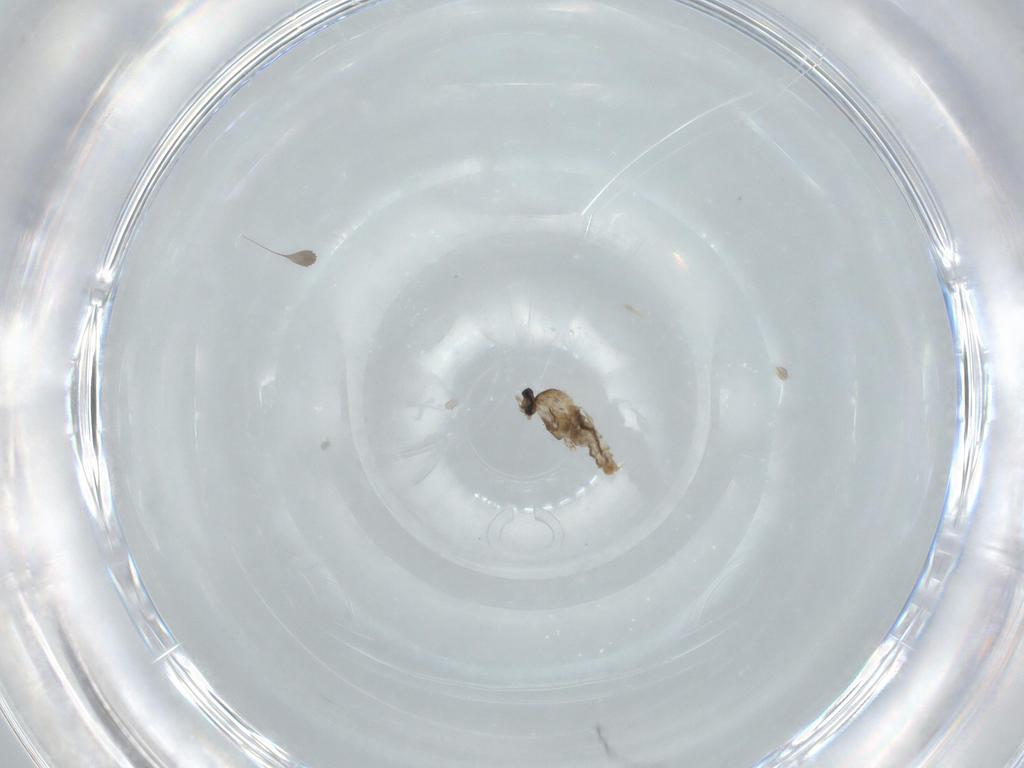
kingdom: Animalia
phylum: Arthropoda
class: Insecta
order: Diptera
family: Cecidomyiidae
